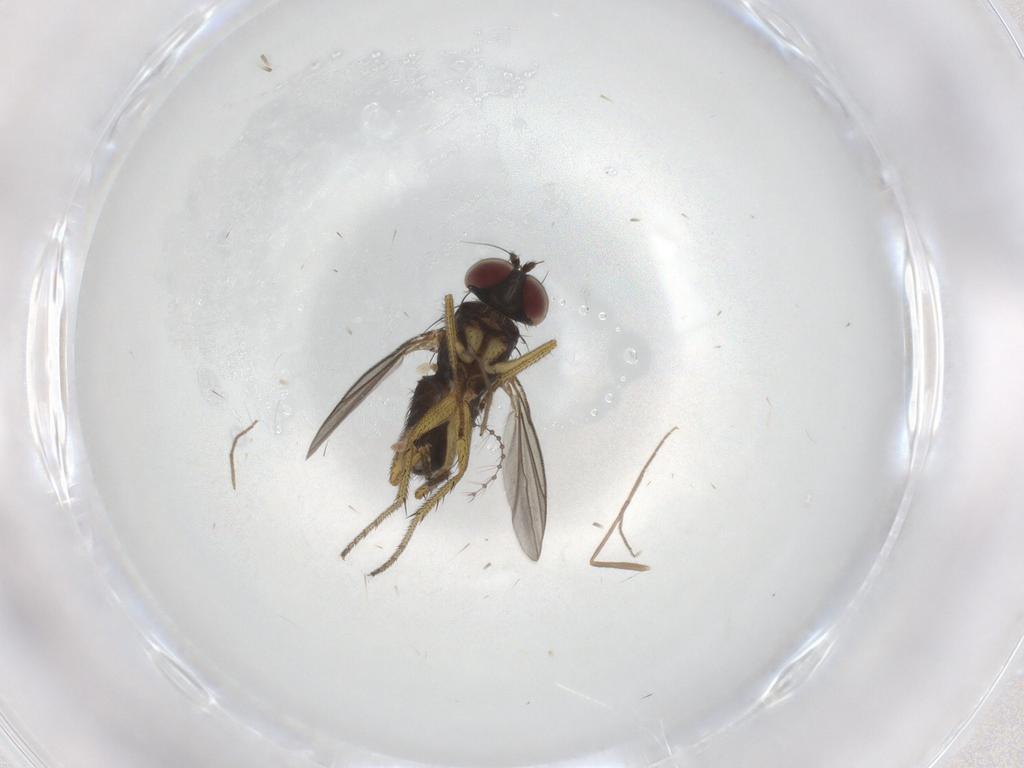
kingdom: Animalia
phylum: Arthropoda
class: Insecta
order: Diptera
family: Chironomidae
